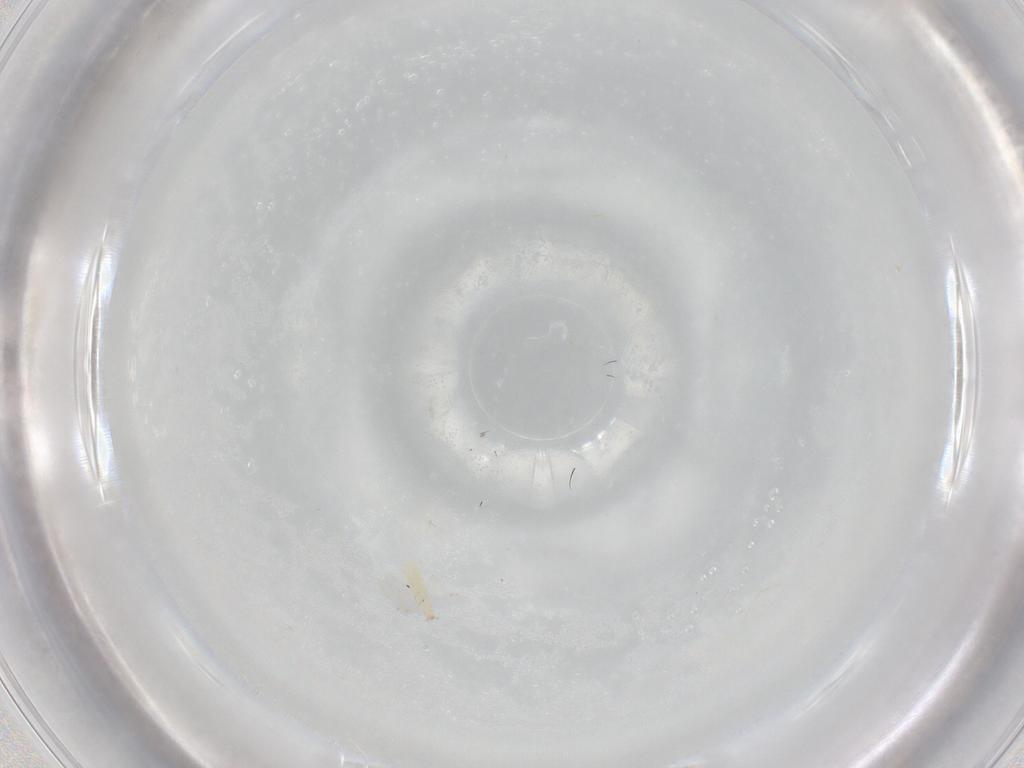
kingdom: Animalia
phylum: Arthropoda
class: Insecta
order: Diptera
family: Cecidomyiidae
